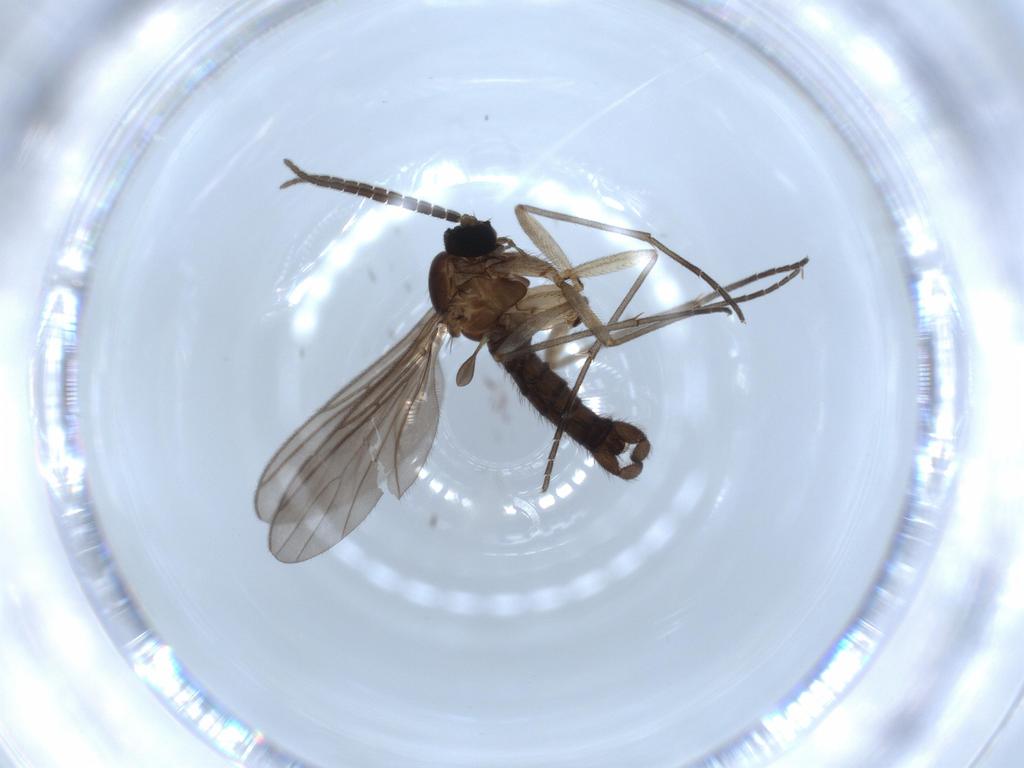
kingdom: Animalia
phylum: Arthropoda
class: Insecta
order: Diptera
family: Sciaridae
